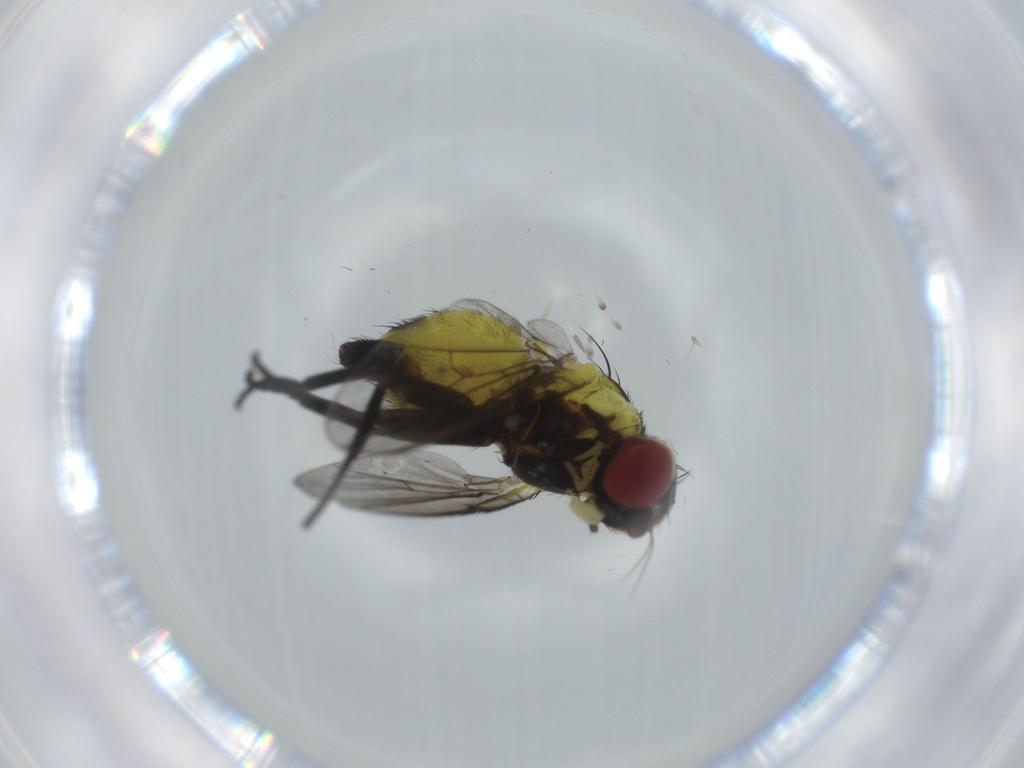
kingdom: Animalia
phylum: Arthropoda
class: Insecta
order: Diptera
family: Agromyzidae
